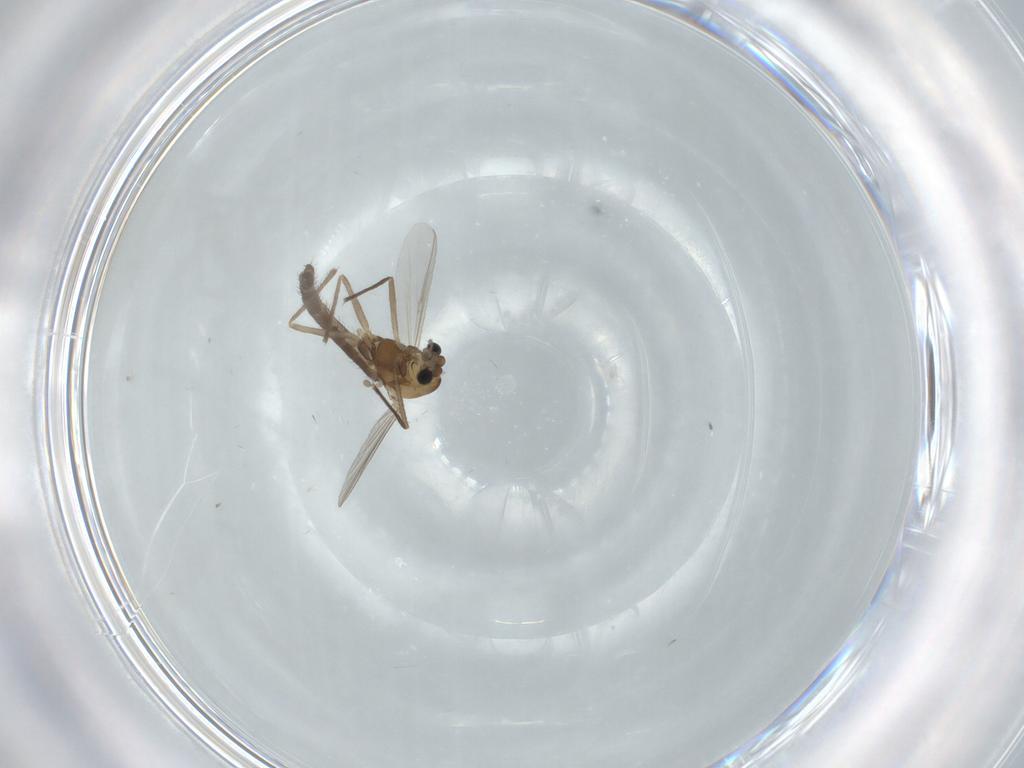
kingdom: Animalia
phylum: Arthropoda
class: Insecta
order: Diptera
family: Chironomidae
